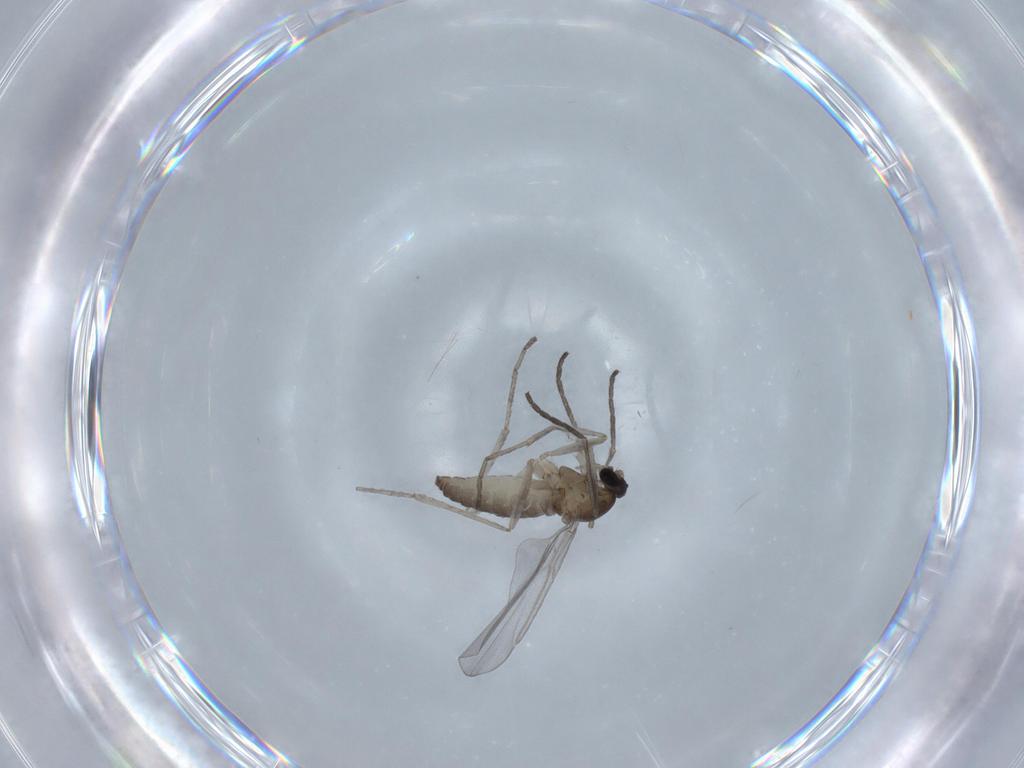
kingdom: Animalia
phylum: Arthropoda
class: Insecta
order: Diptera
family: Cecidomyiidae
